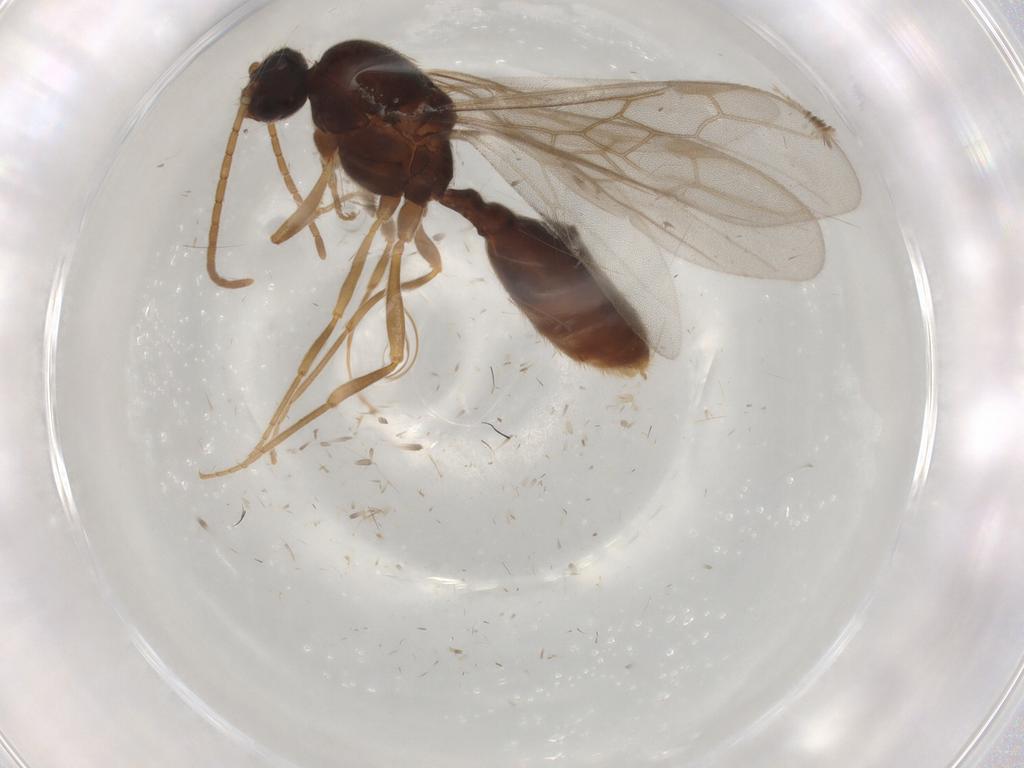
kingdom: Animalia
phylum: Arthropoda
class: Insecta
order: Hymenoptera
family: Formicidae
